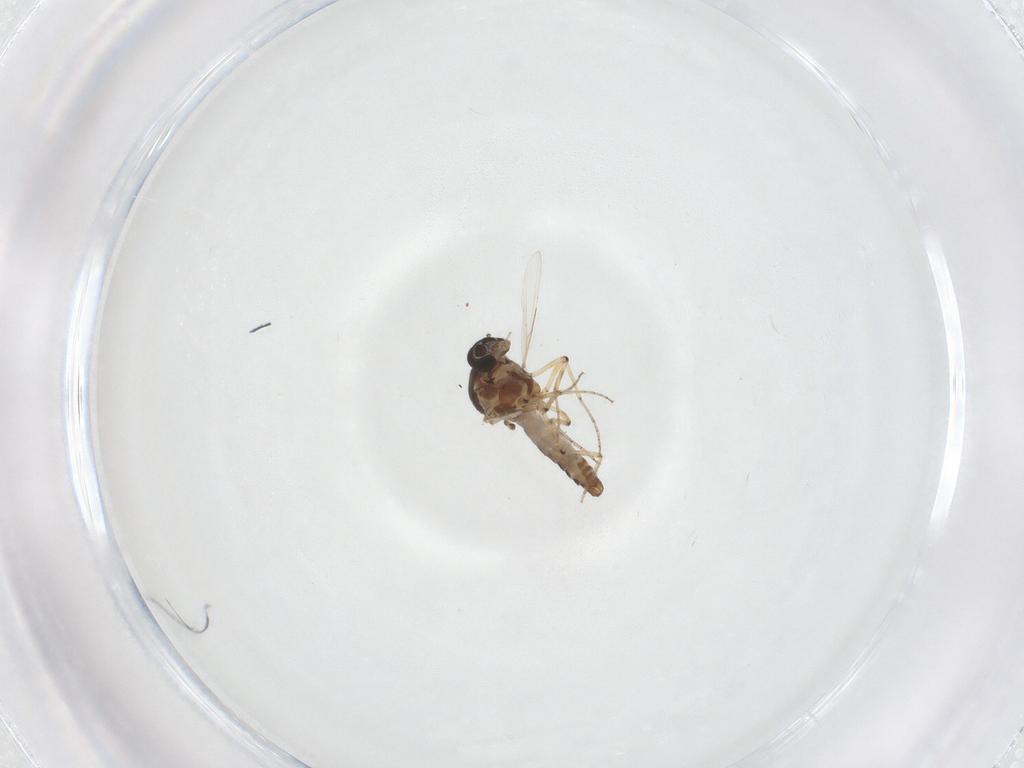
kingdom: Animalia
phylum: Arthropoda
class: Insecta
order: Diptera
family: Ceratopogonidae
